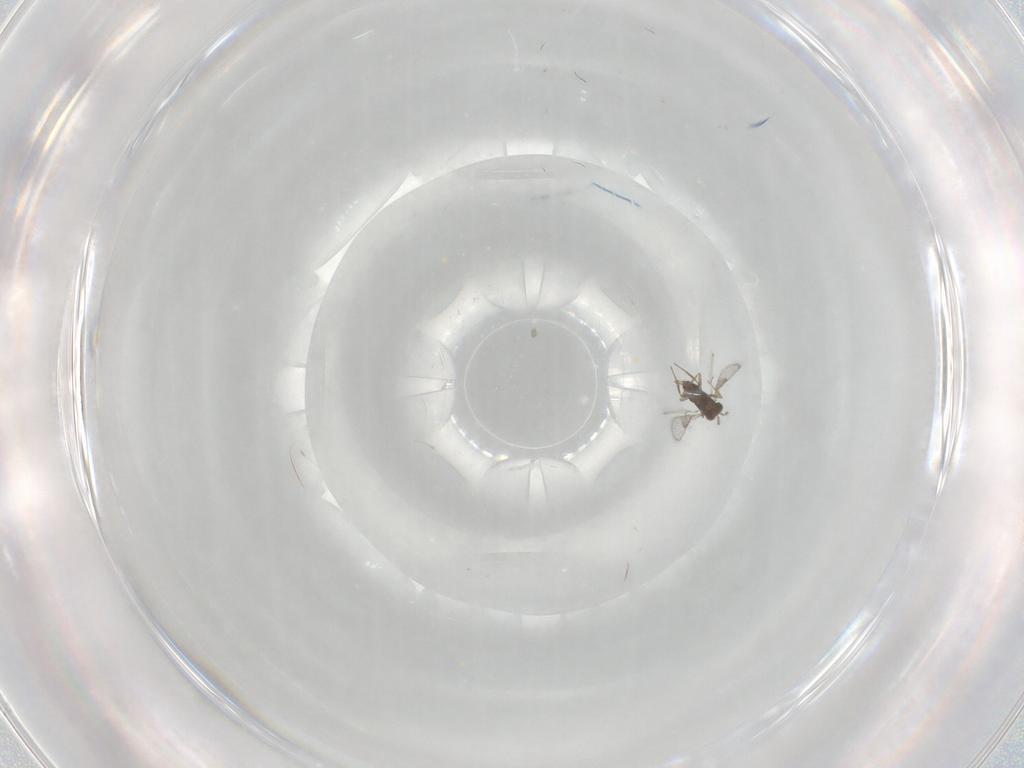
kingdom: Animalia
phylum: Arthropoda
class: Insecta
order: Hymenoptera
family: Trichogrammatidae
